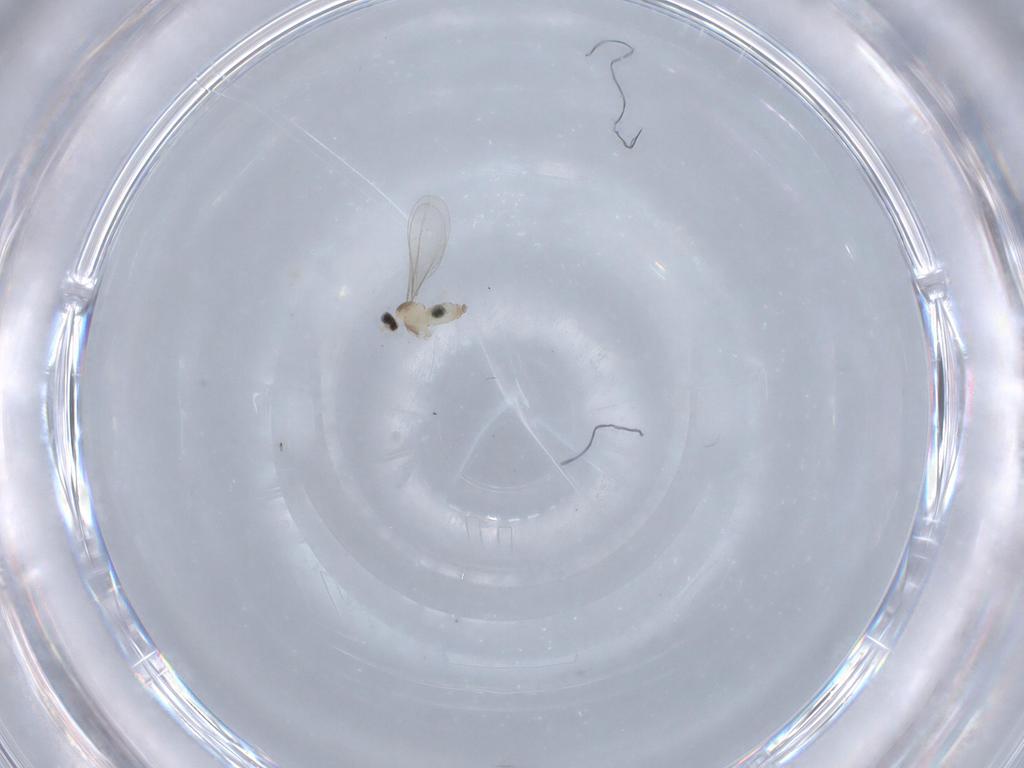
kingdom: Animalia
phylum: Arthropoda
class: Insecta
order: Diptera
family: Cecidomyiidae
